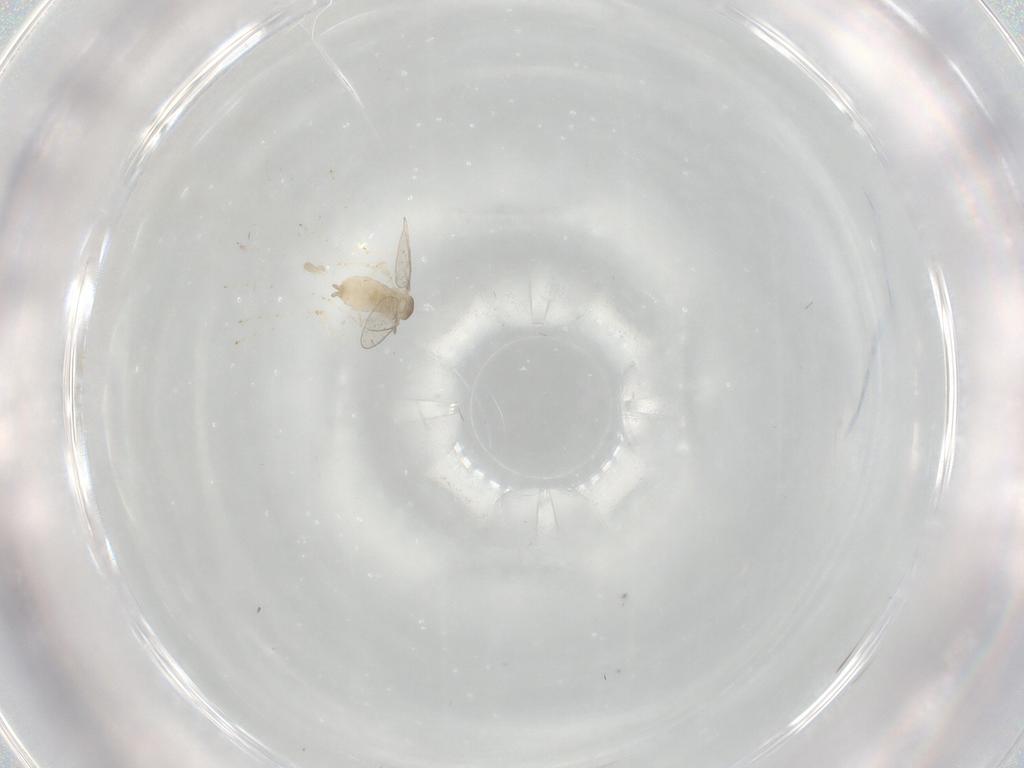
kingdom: Animalia
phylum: Arthropoda
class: Insecta
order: Diptera
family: Cecidomyiidae
